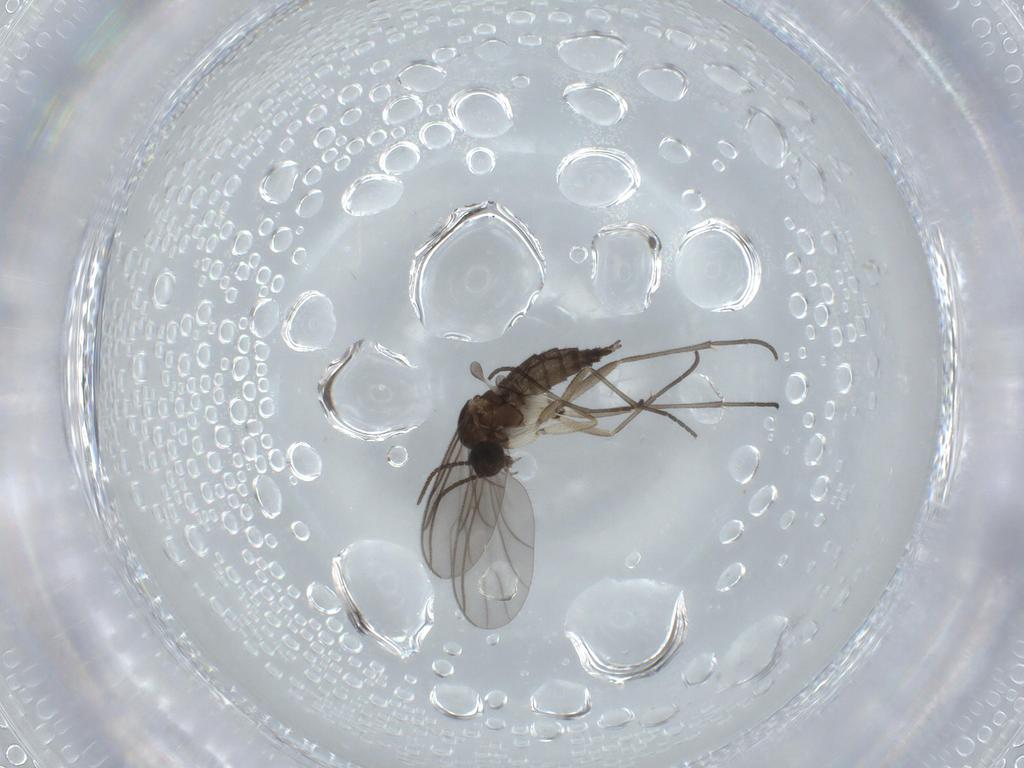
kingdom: Animalia
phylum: Arthropoda
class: Insecta
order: Diptera
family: Sciaridae
